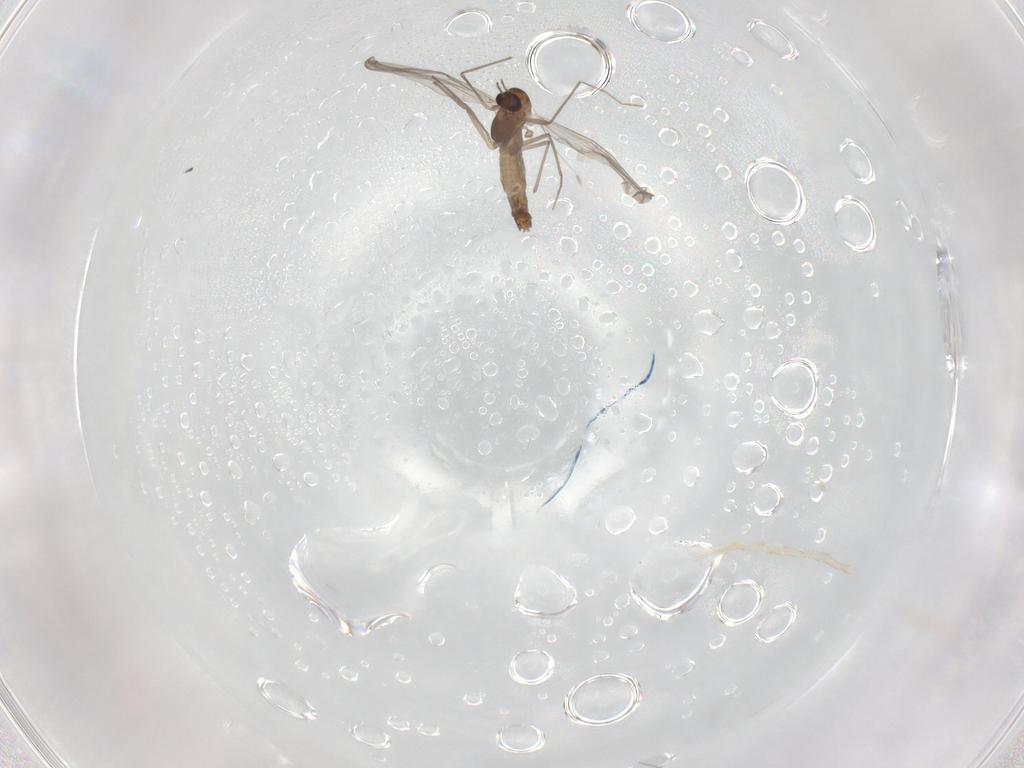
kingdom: Animalia
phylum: Arthropoda
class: Insecta
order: Diptera
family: Chironomidae
